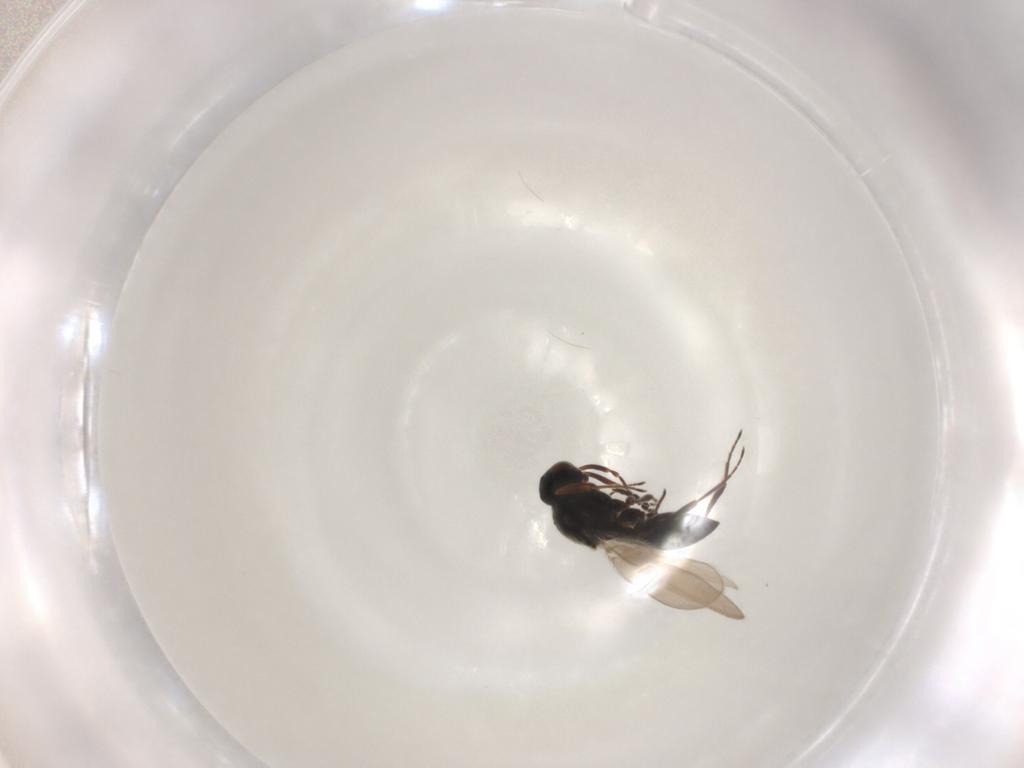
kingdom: Animalia
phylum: Arthropoda
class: Insecta
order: Hymenoptera
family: Platygastridae
